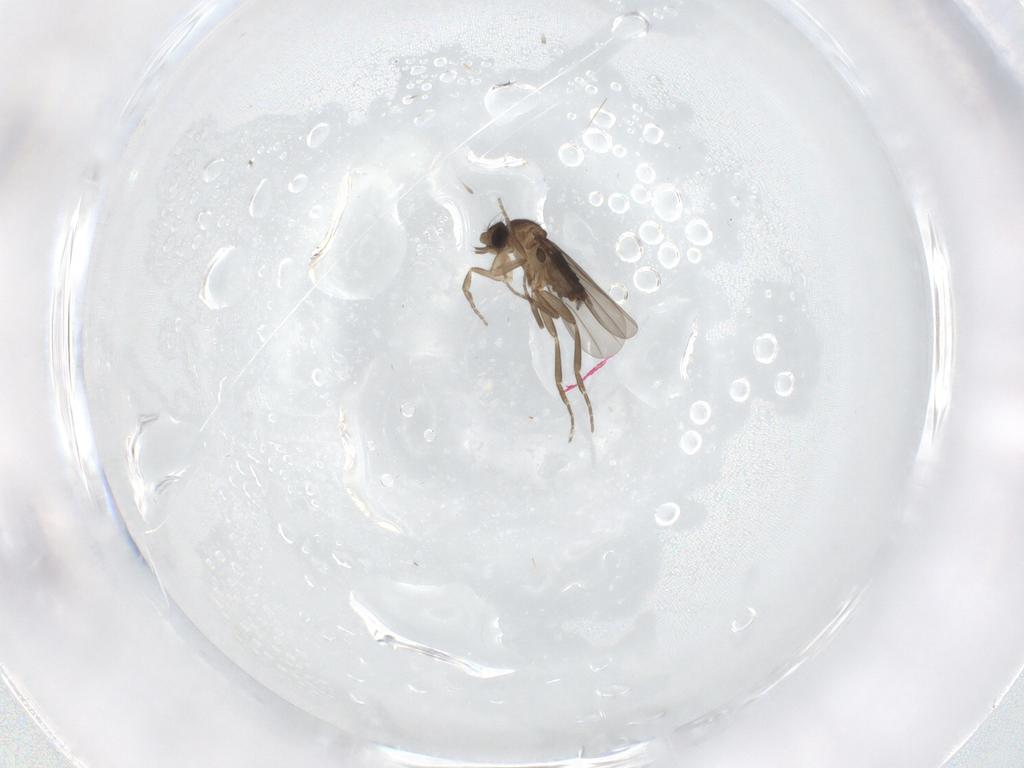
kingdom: Animalia
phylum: Arthropoda
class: Insecta
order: Diptera
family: Phoridae
